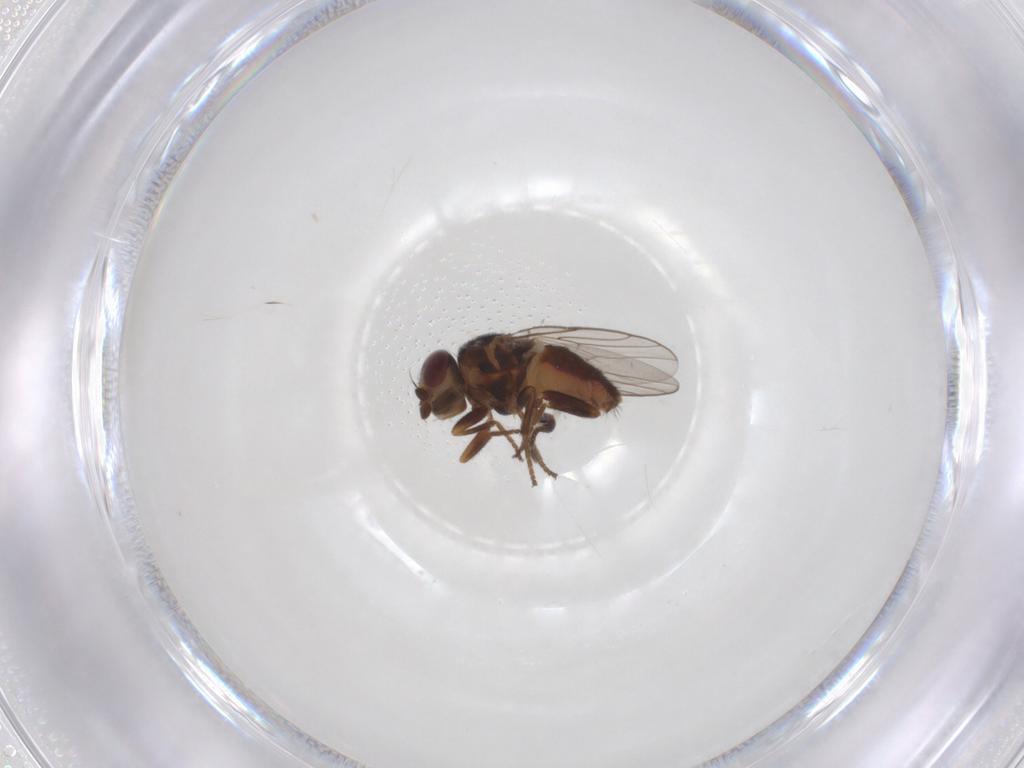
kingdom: Animalia
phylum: Arthropoda
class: Insecta
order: Diptera
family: Chloropidae
